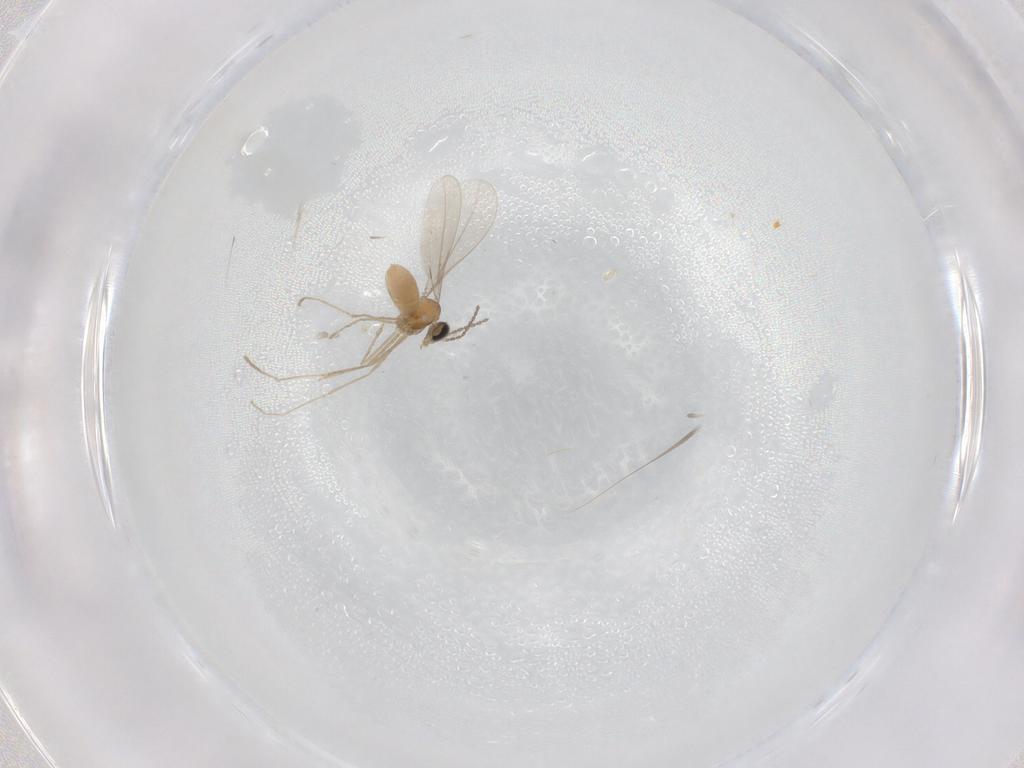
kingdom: Animalia
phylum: Arthropoda
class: Insecta
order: Diptera
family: Cecidomyiidae
